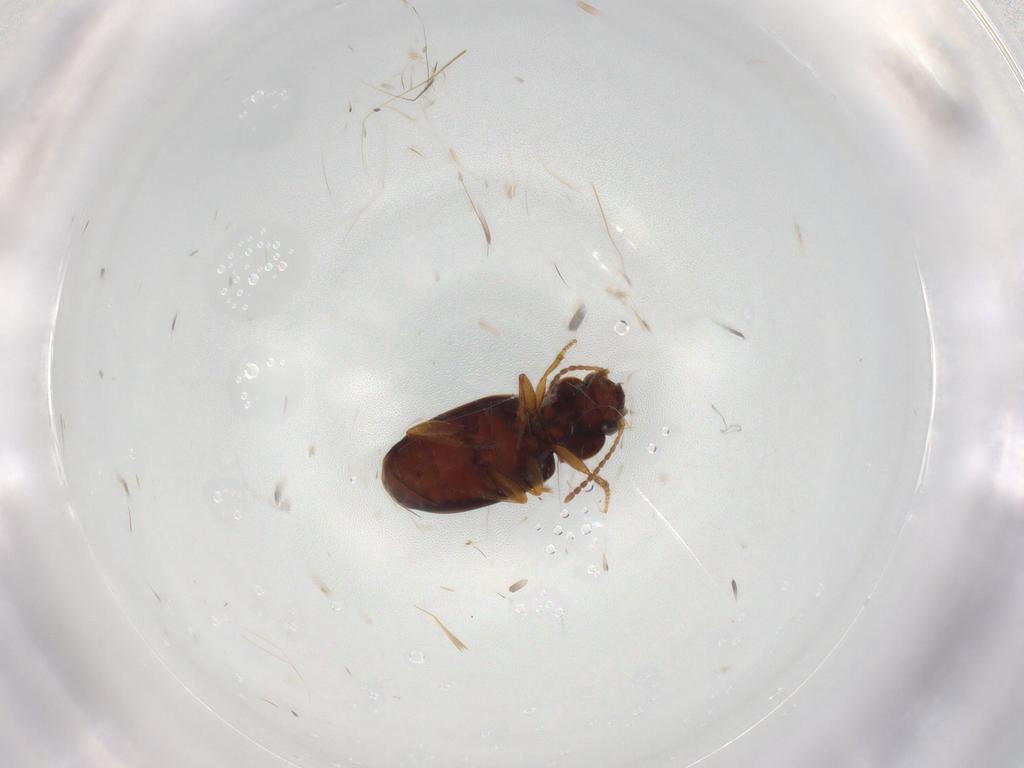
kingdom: Animalia
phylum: Arthropoda
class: Insecta
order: Coleoptera
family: Carabidae
